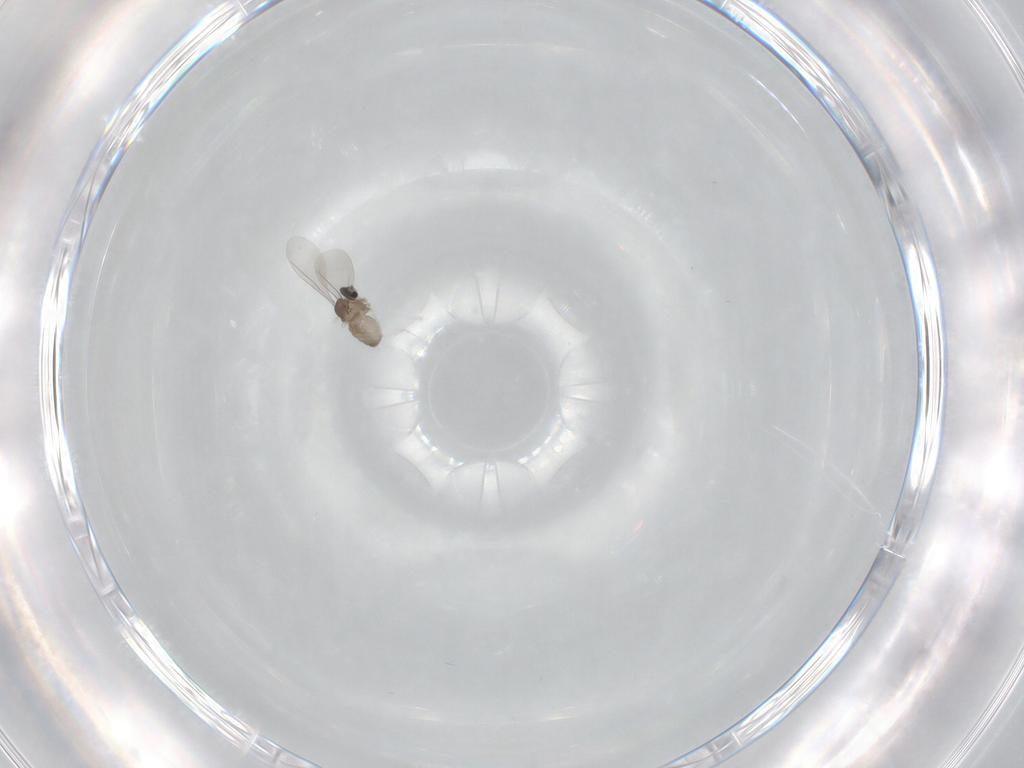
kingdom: Animalia
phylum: Arthropoda
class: Insecta
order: Diptera
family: Cecidomyiidae
